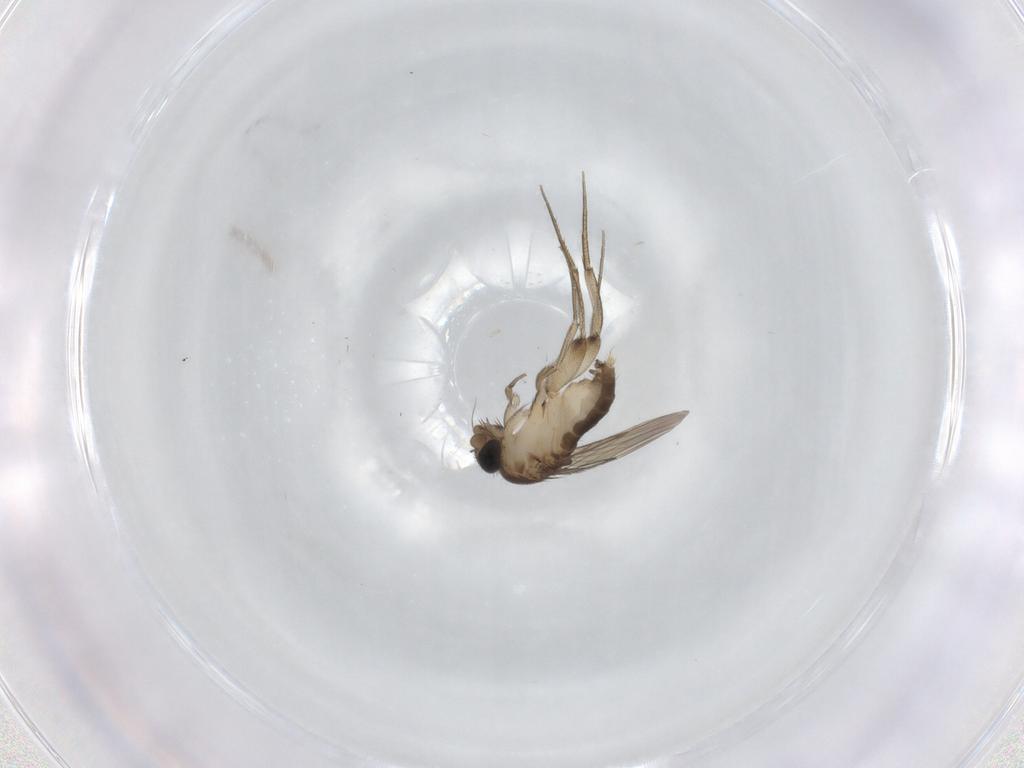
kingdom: Animalia
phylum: Arthropoda
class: Insecta
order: Diptera
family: Phoridae
